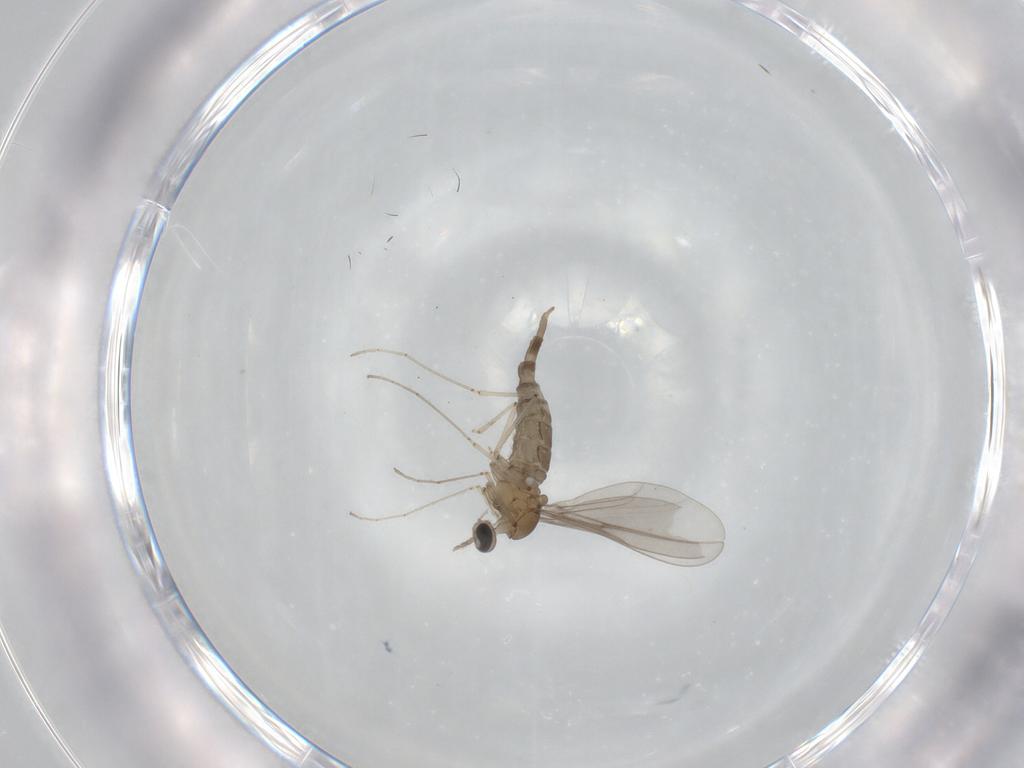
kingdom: Animalia
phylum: Arthropoda
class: Insecta
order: Diptera
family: Cecidomyiidae
